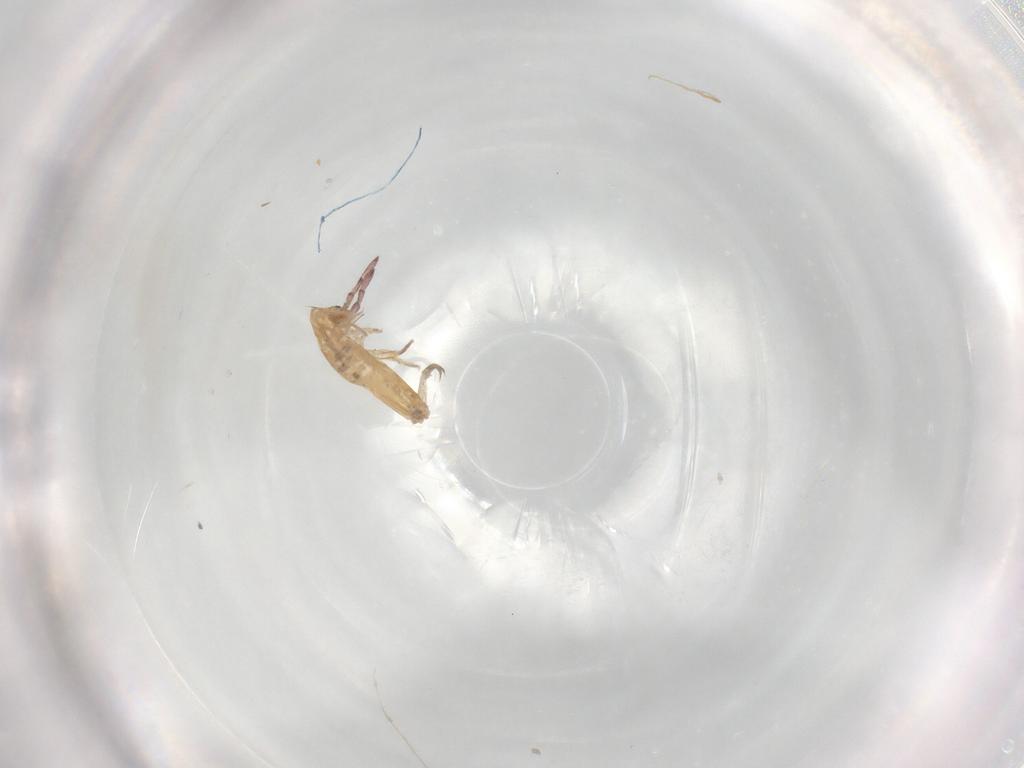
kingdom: Animalia
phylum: Arthropoda
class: Collembola
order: Entomobryomorpha
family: Entomobryidae
